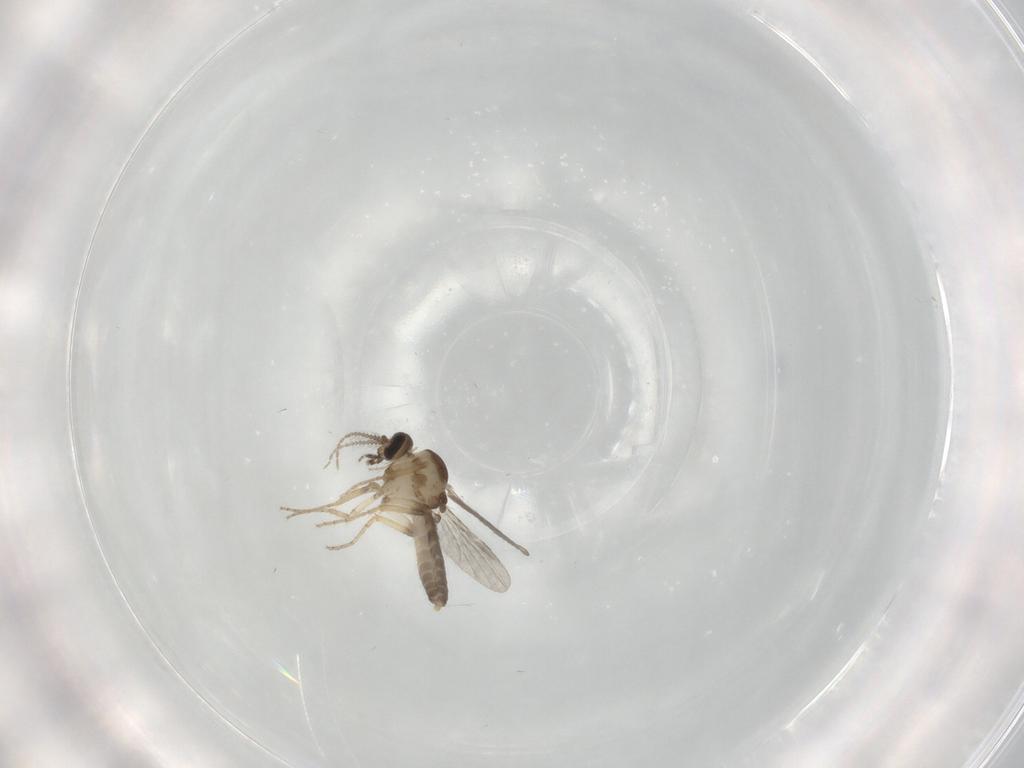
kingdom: Animalia
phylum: Arthropoda
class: Insecta
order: Diptera
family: Ceratopogonidae
